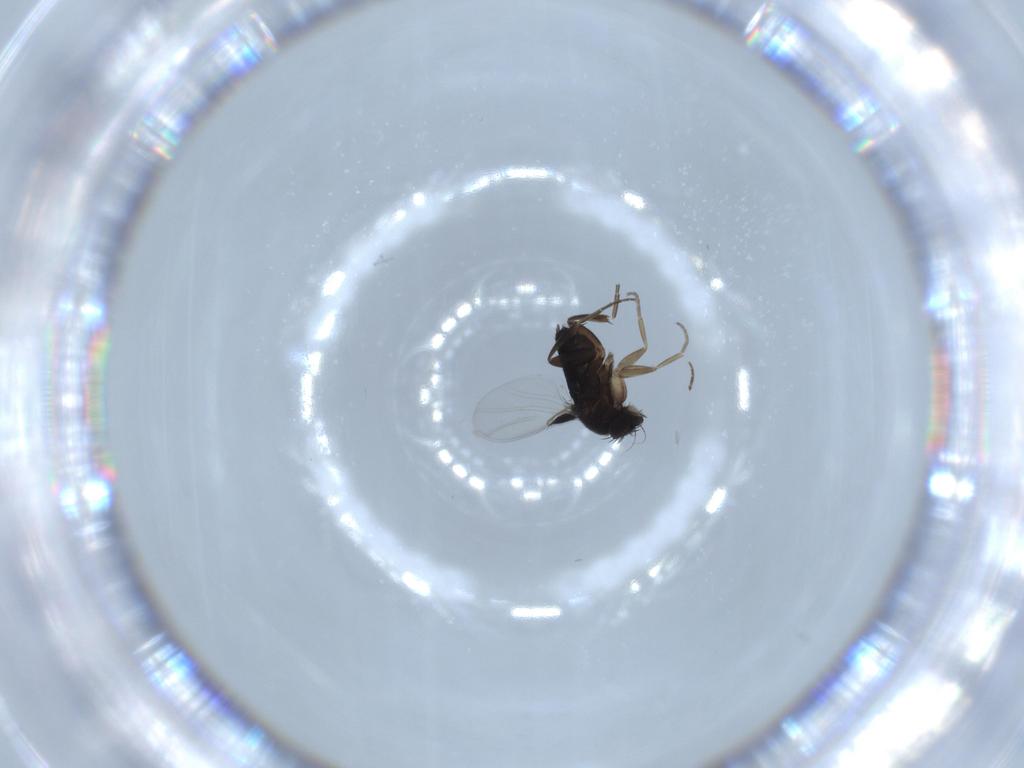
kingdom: Animalia
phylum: Arthropoda
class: Insecta
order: Diptera
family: Phoridae
